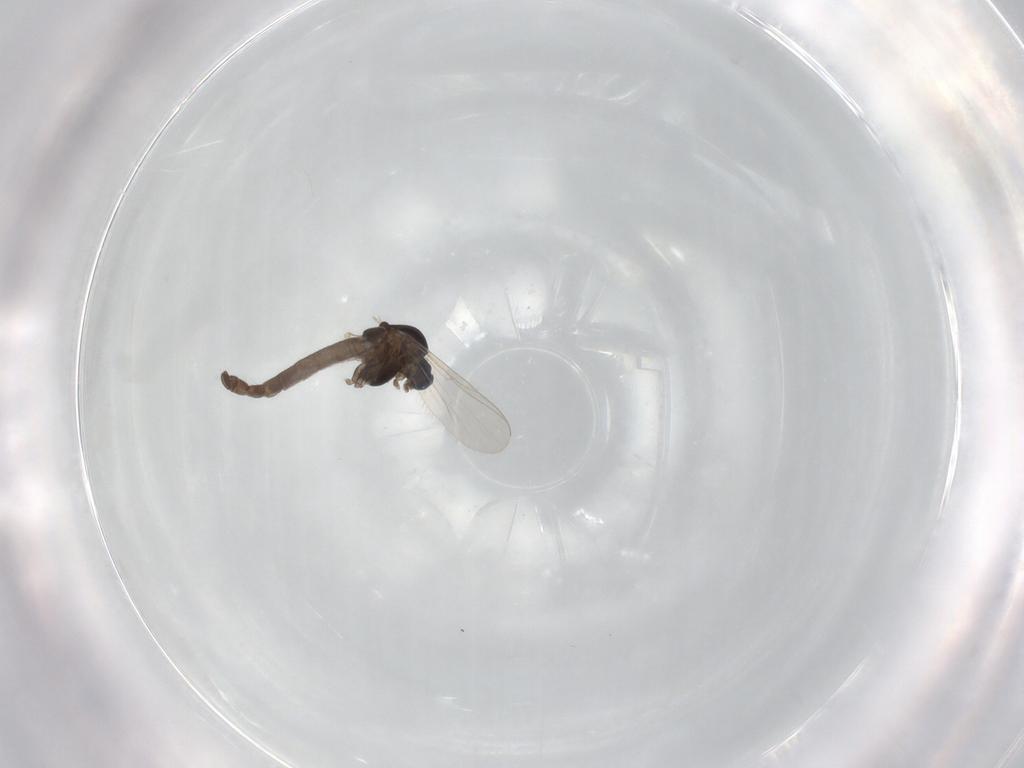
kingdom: Animalia
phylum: Arthropoda
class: Insecta
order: Diptera
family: Chironomidae
